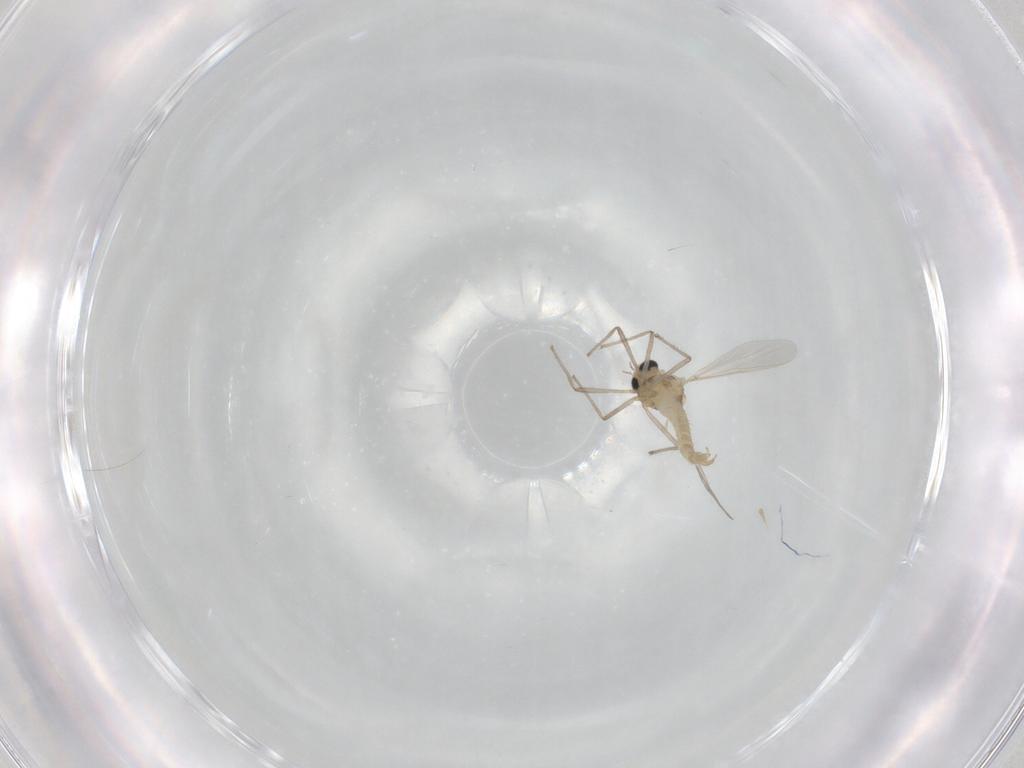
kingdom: Animalia
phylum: Arthropoda
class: Insecta
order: Diptera
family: Cecidomyiidae
